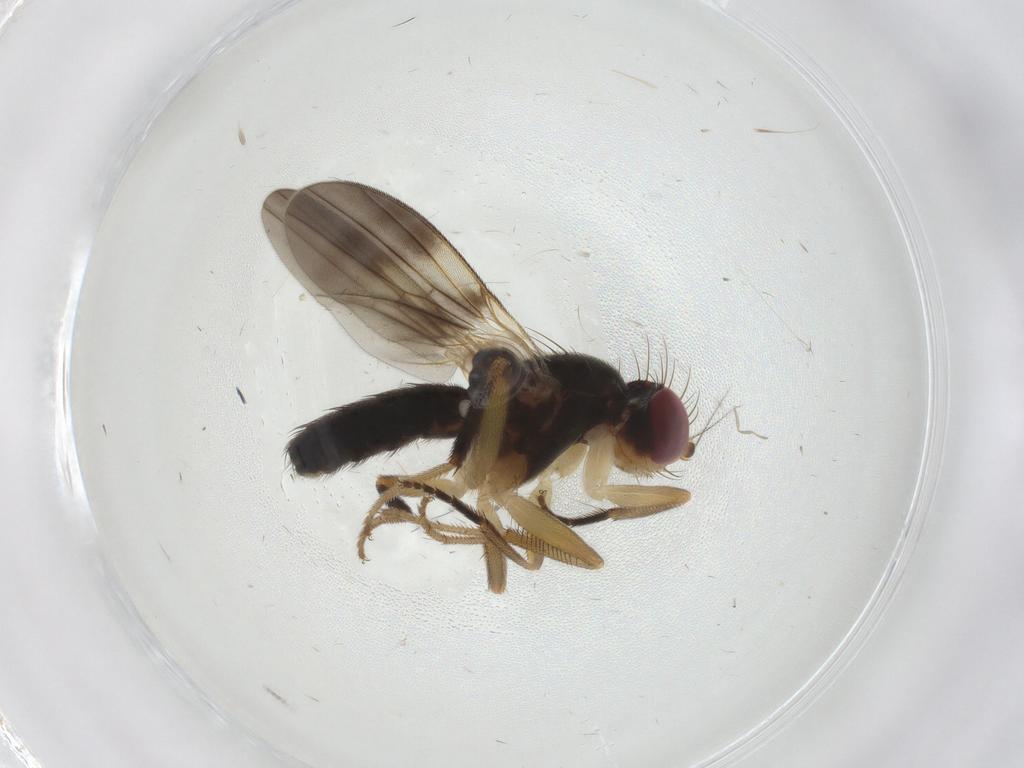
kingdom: Animalia
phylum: Arthropoda
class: Insecta
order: Diptera
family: Clusiidae
